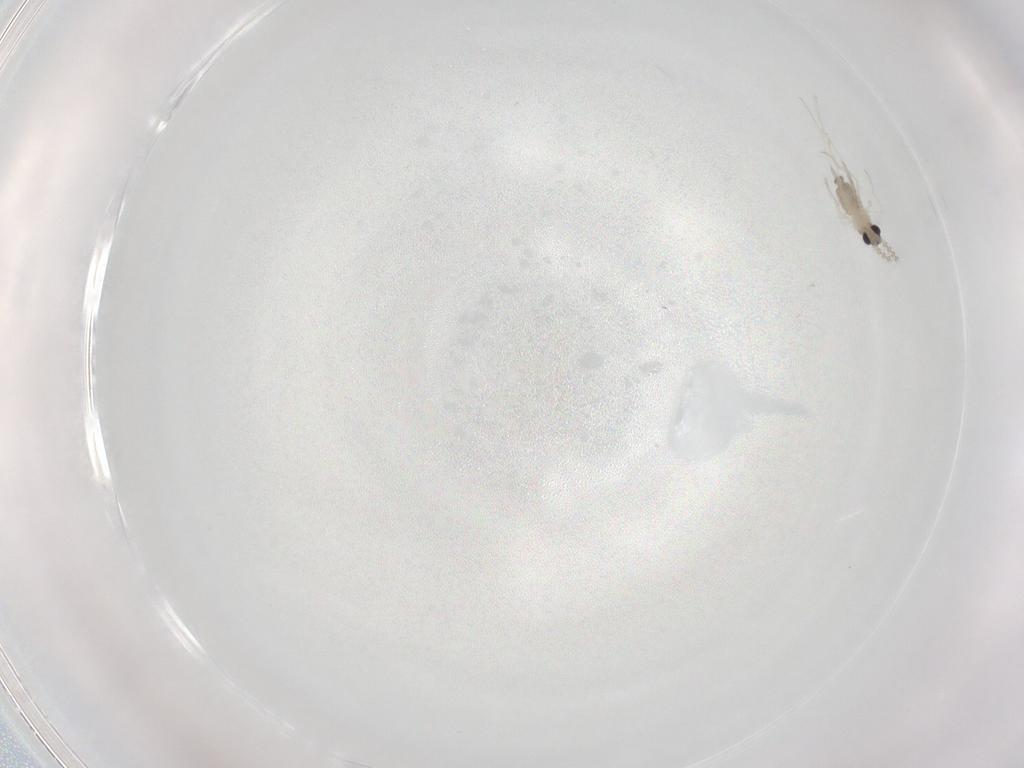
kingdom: Animalia
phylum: Arthropoda
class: Insecta
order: Diptera
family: Cecidomyiidae
